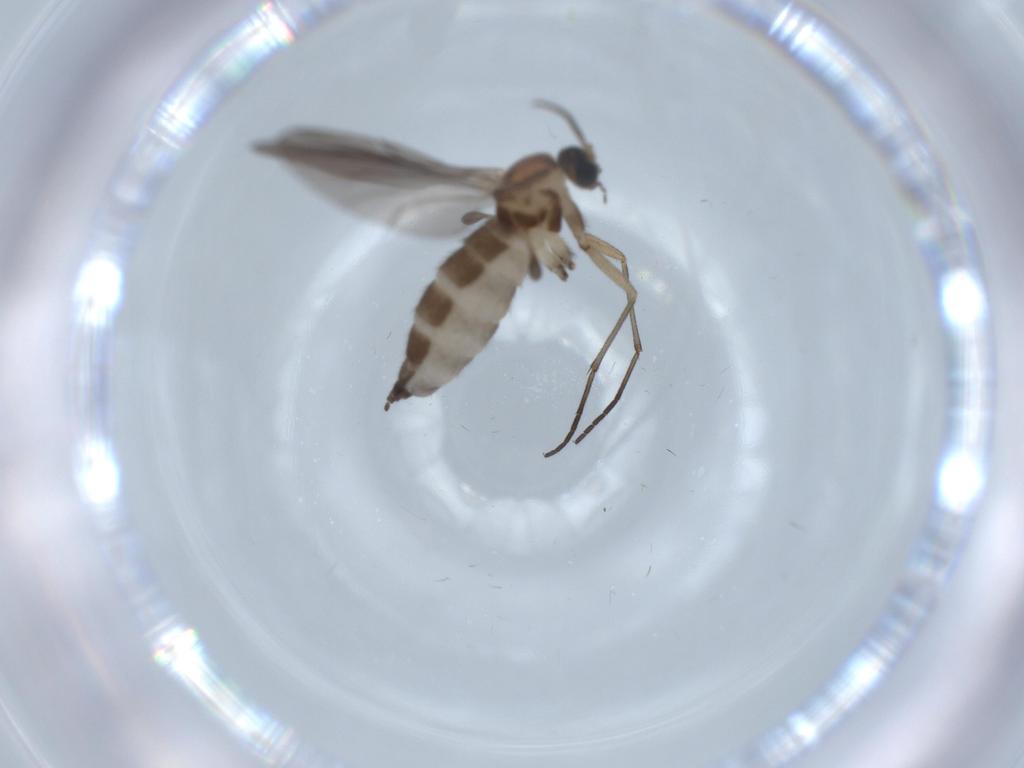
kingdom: Animalia
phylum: Arthropoda
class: Insecta
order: Diptera
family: Sciaridae
